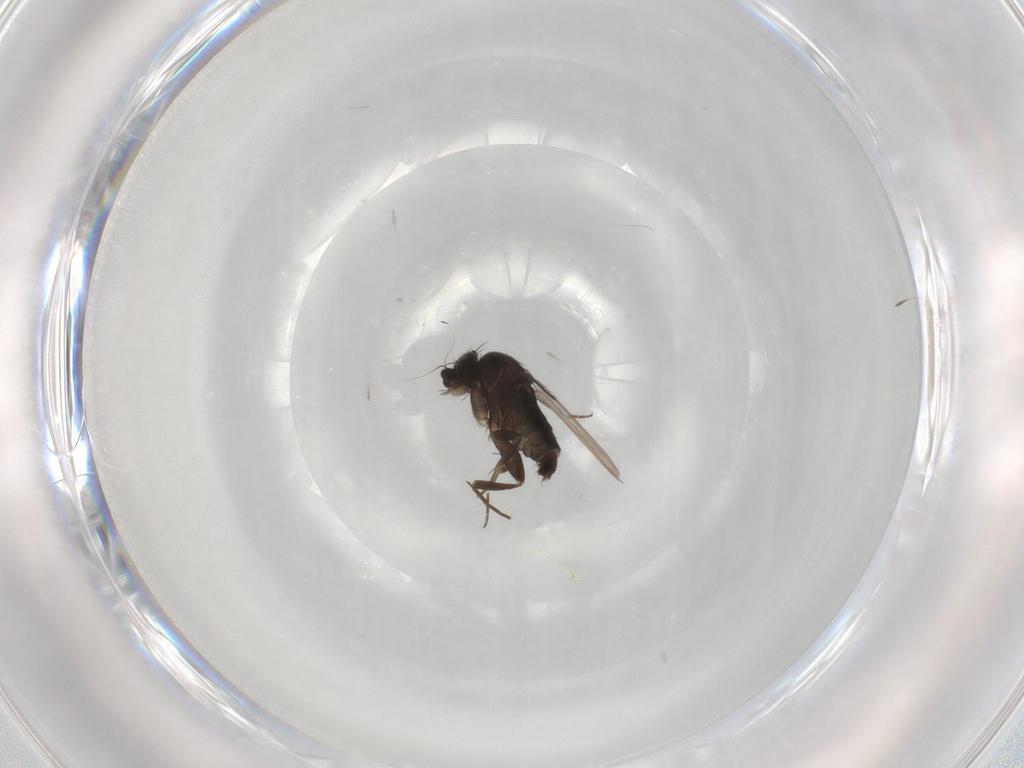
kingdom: Animalia
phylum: Arthropoda
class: Insecta
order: Diptera
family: Phoridae
